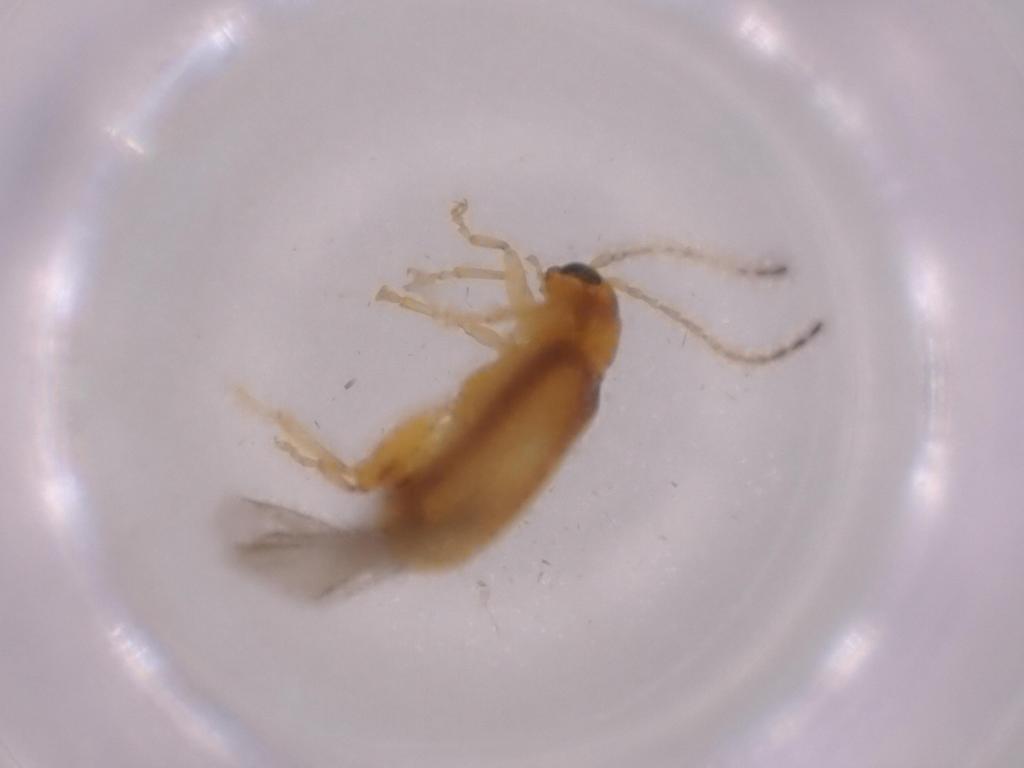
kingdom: Animalia
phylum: Arthropoda
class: Insecta
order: Coleoptera
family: Chrysomelidae
